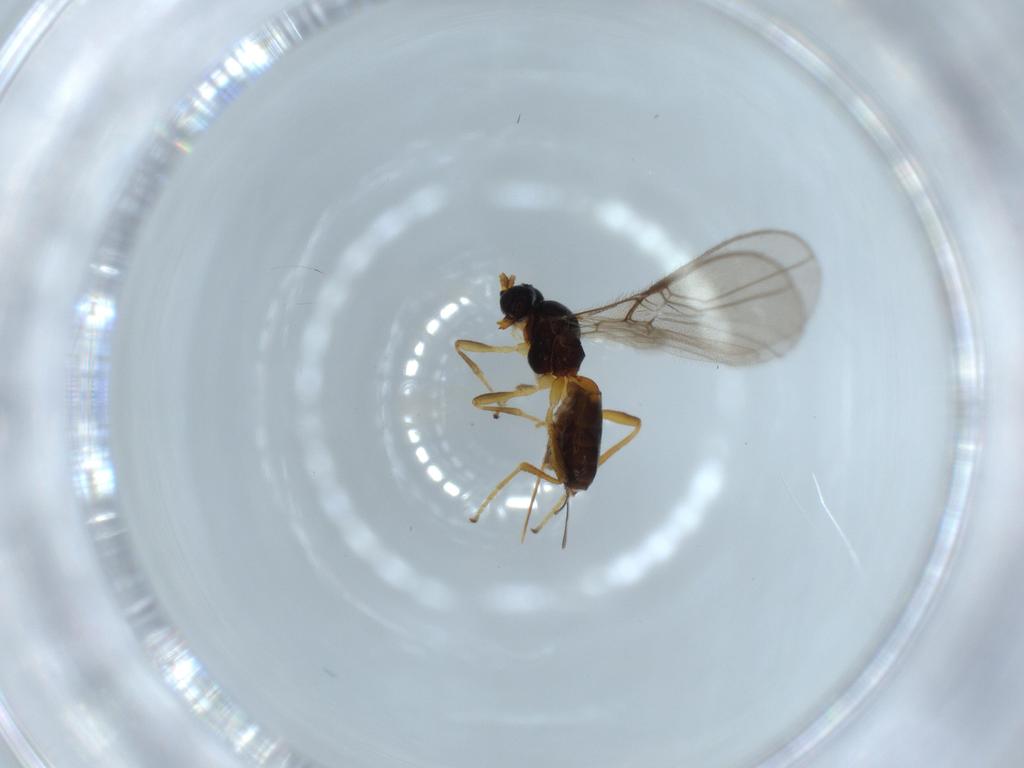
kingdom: Animalia
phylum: Arthropoda
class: Insecta
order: Hymenoptera
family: Braconidae
